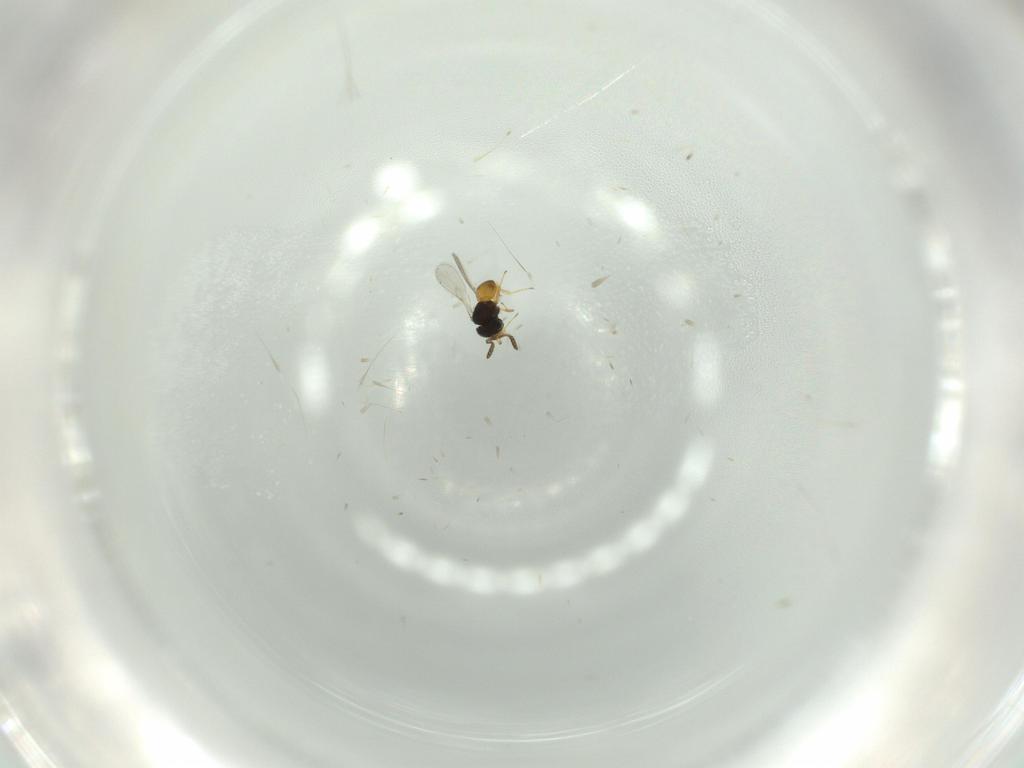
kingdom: Animalia
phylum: Arthropoda
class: Insecta
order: Hymenoptera
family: Scelionidae
